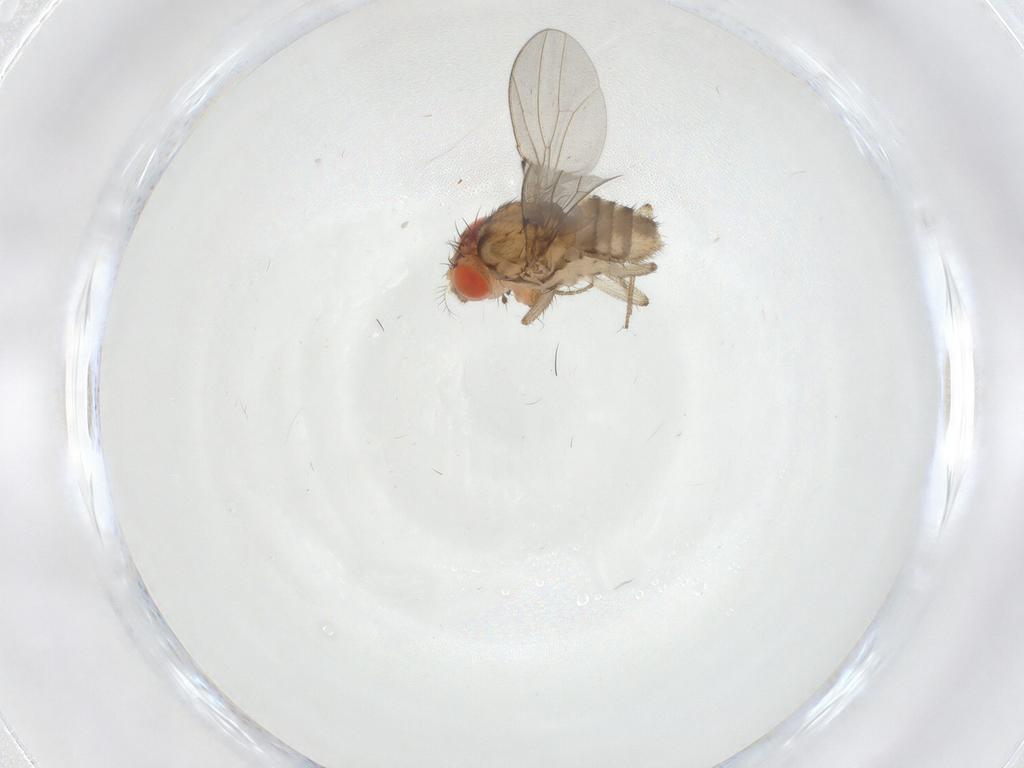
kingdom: Animalia
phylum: Arthropoda
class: Insecta
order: Diptera
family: Drosophilidae
